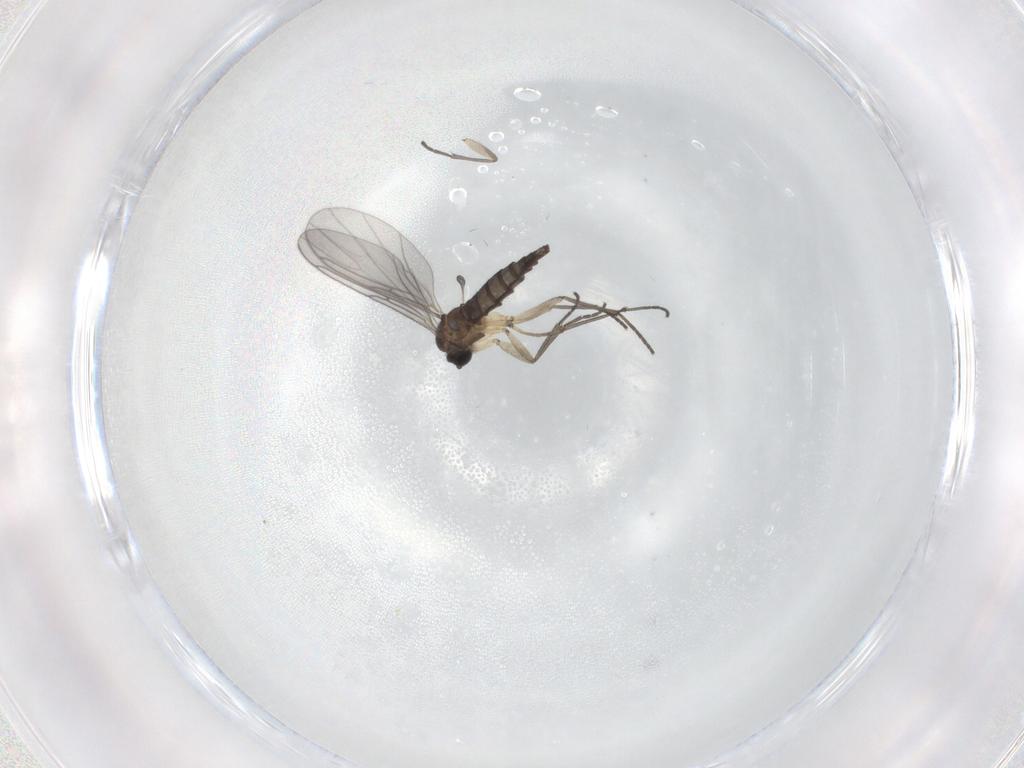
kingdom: Animalia
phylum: Arthropoda
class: Insecta
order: Diptera
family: Sciaridae
